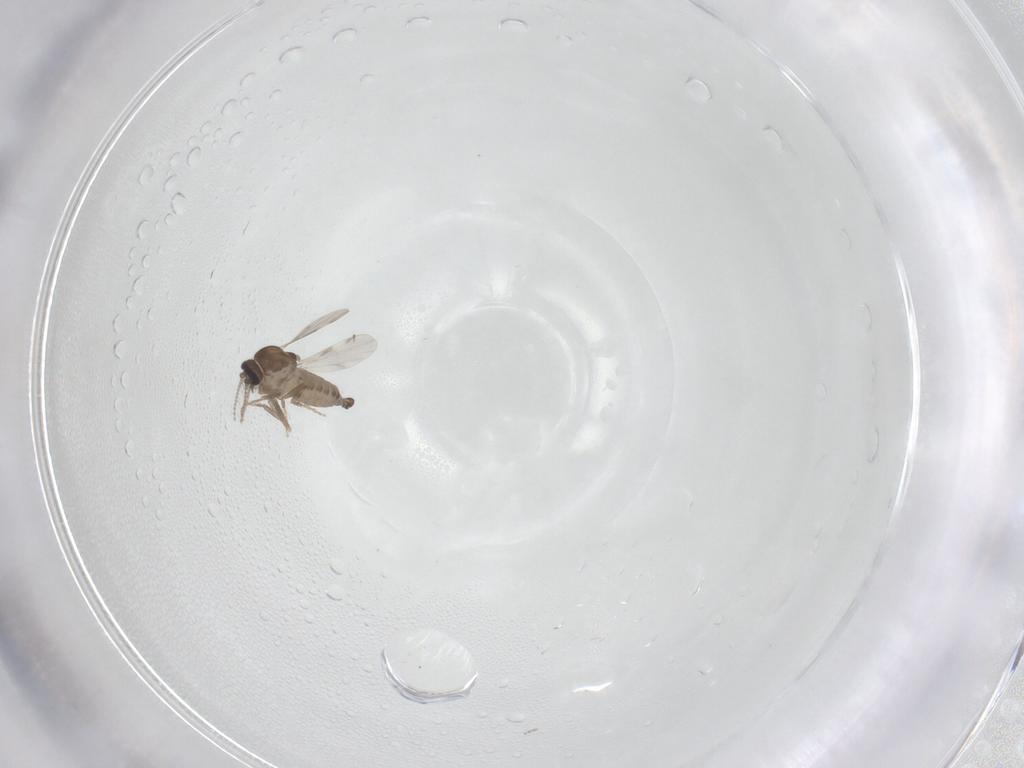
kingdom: Animalia
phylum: Arthropoda
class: Insecta
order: Diptera
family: Ceratopogonidae
